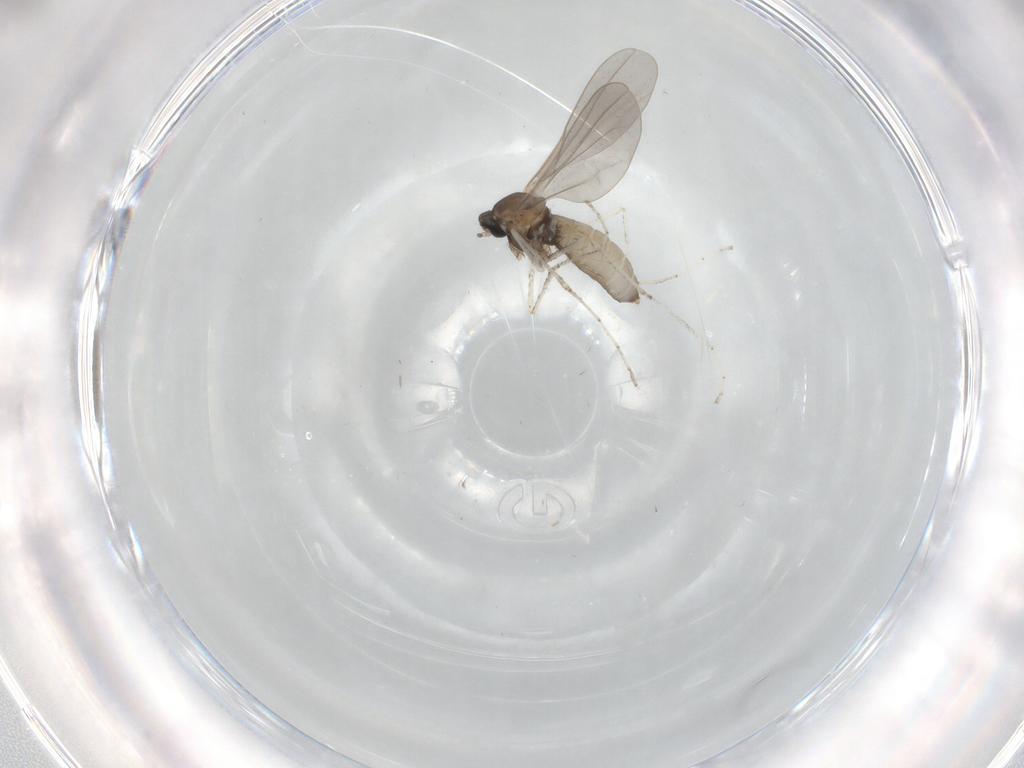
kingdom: Animalia
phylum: Arthropoda
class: Insecta
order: Diptera
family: Cecidomyiidae
